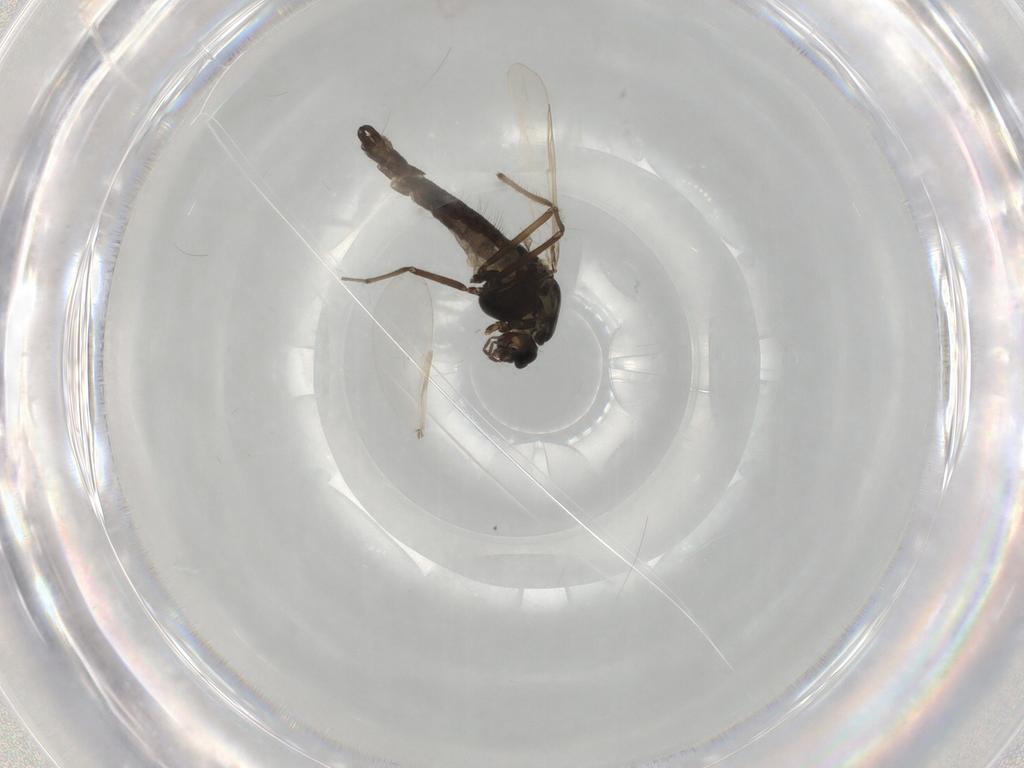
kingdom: Animalia
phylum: Arthropoda
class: Insecta
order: Diptera
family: Chironomidae
